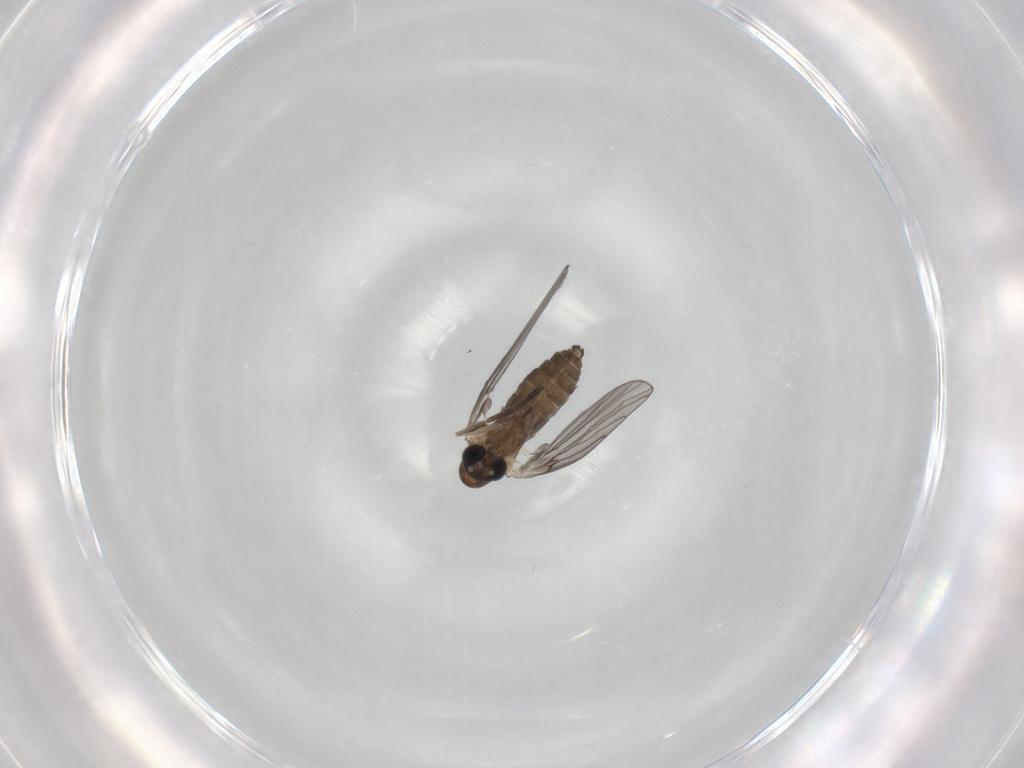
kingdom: Animalia
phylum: Arthropoda
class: Insecta
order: Diptera
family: Psychodidae
